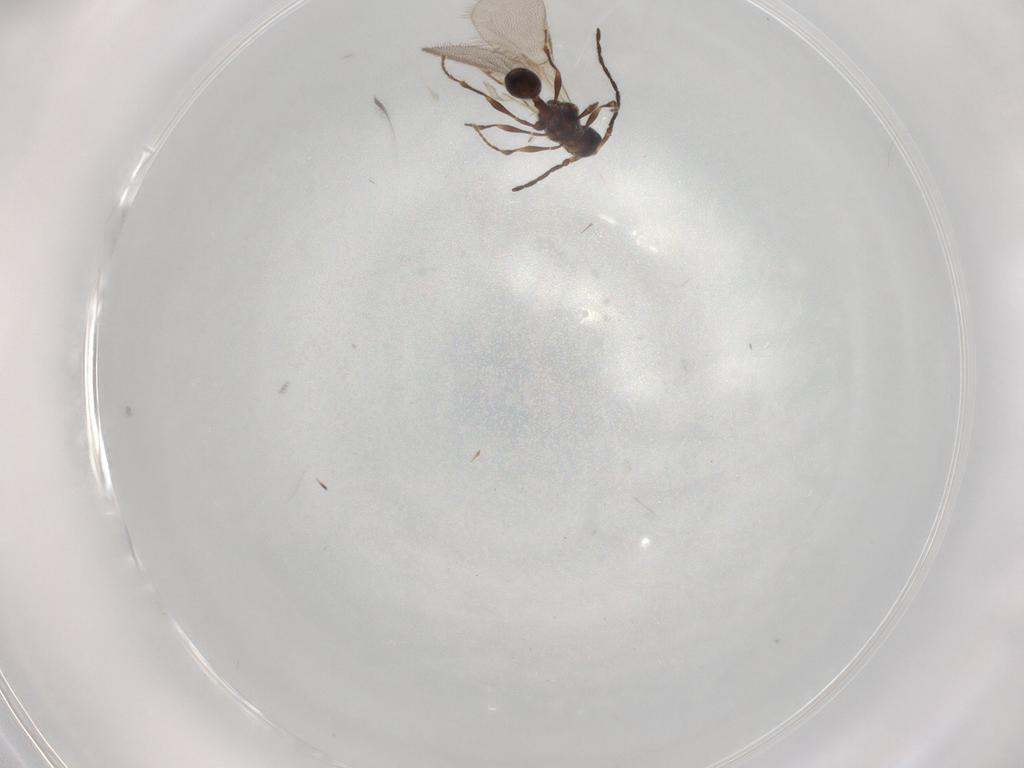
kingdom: Animalia
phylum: Arthropoda
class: Insecta
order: Hymenoptera
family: Diapriidae
